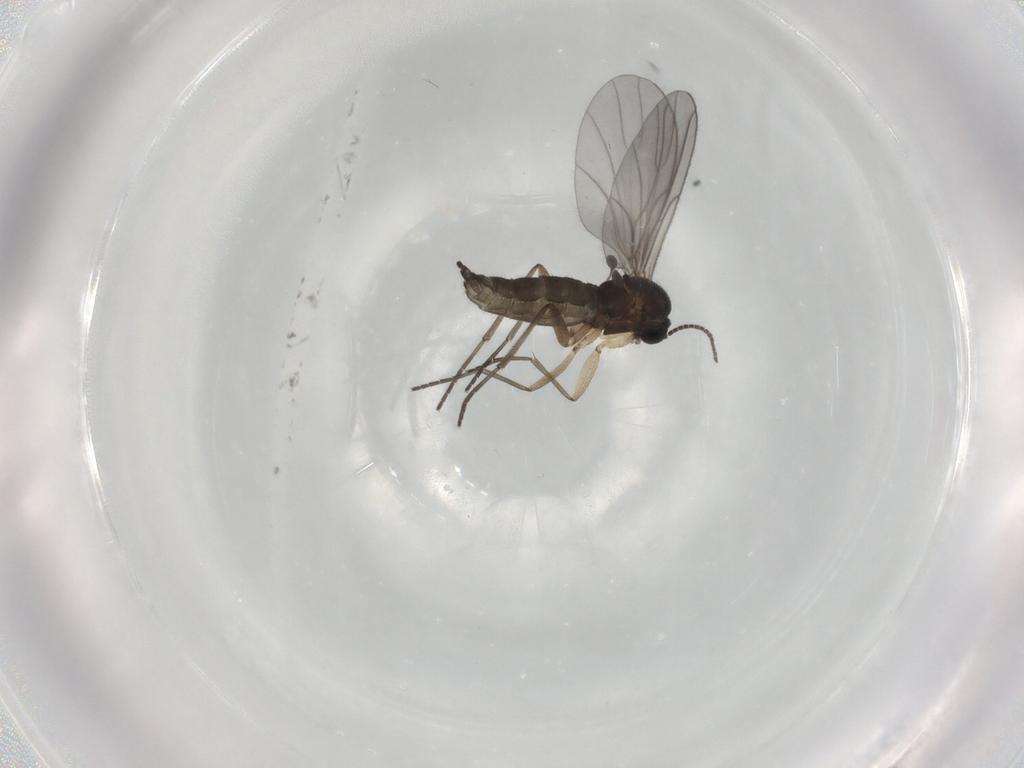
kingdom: Animalia
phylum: Arthropoda
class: Insecta
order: Diptera
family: Sciaridae
